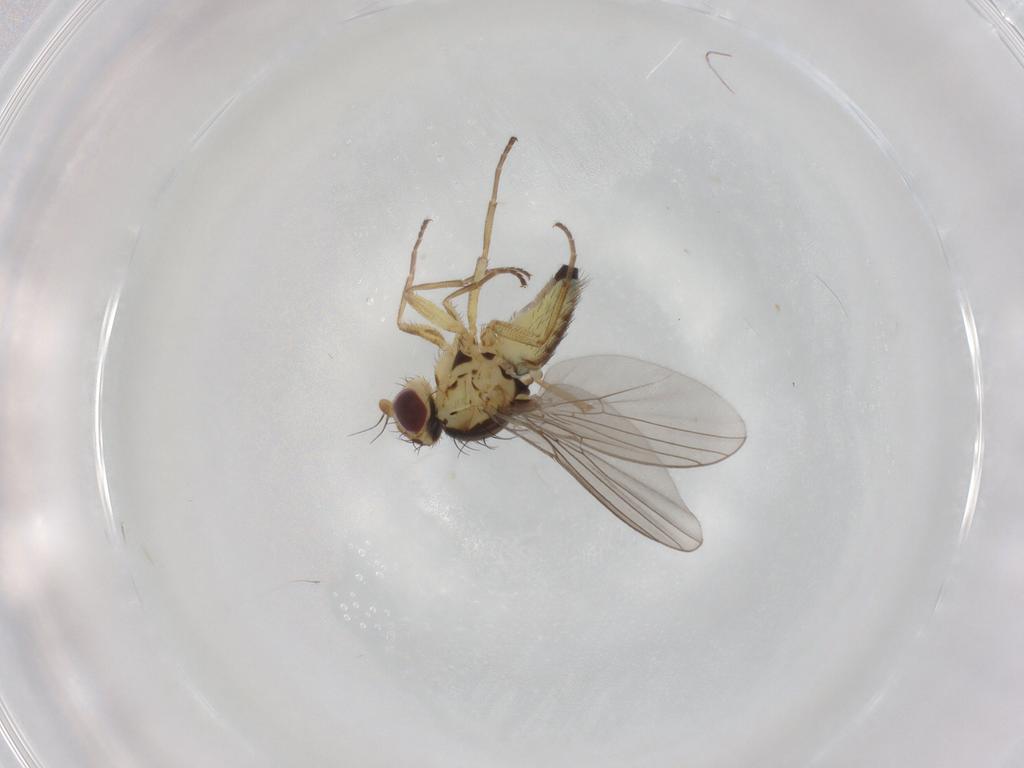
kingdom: Animalia
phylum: Arthropoda
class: Insecta
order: Diptera
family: Agromyzidae
